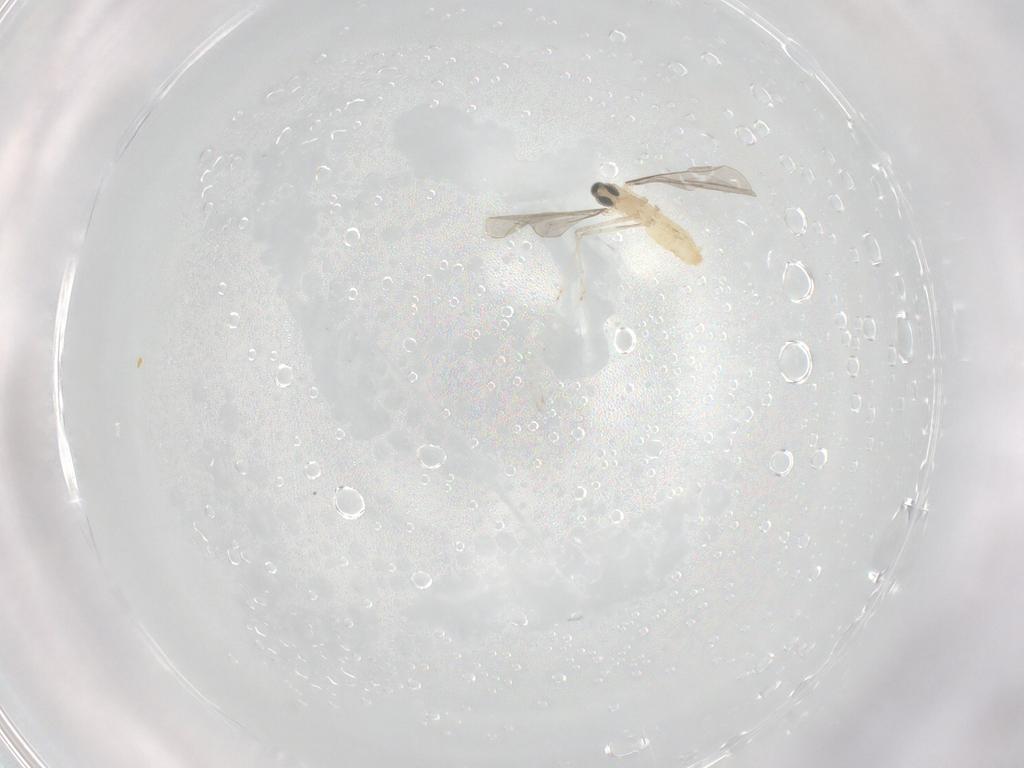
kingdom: Animalia
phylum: Arthropoda
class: Insecta
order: Diptera
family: Cecidomyiidae
